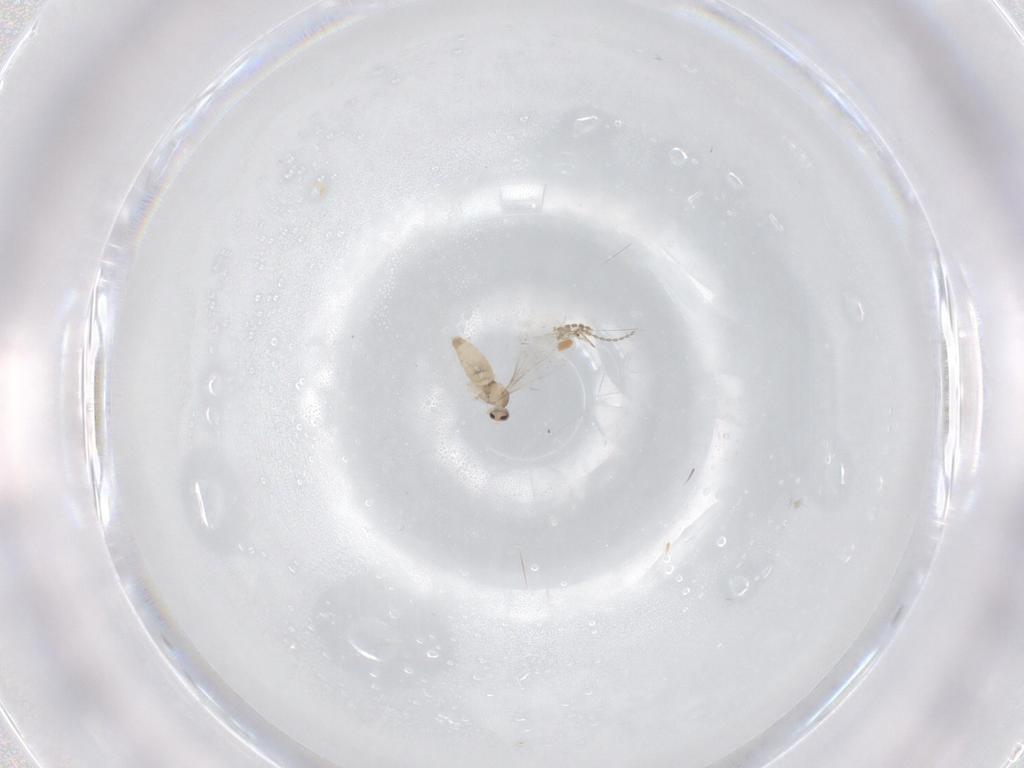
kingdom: Animalia
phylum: Arthropoda
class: Insecta
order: Diptera
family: Cecidomyiidae
